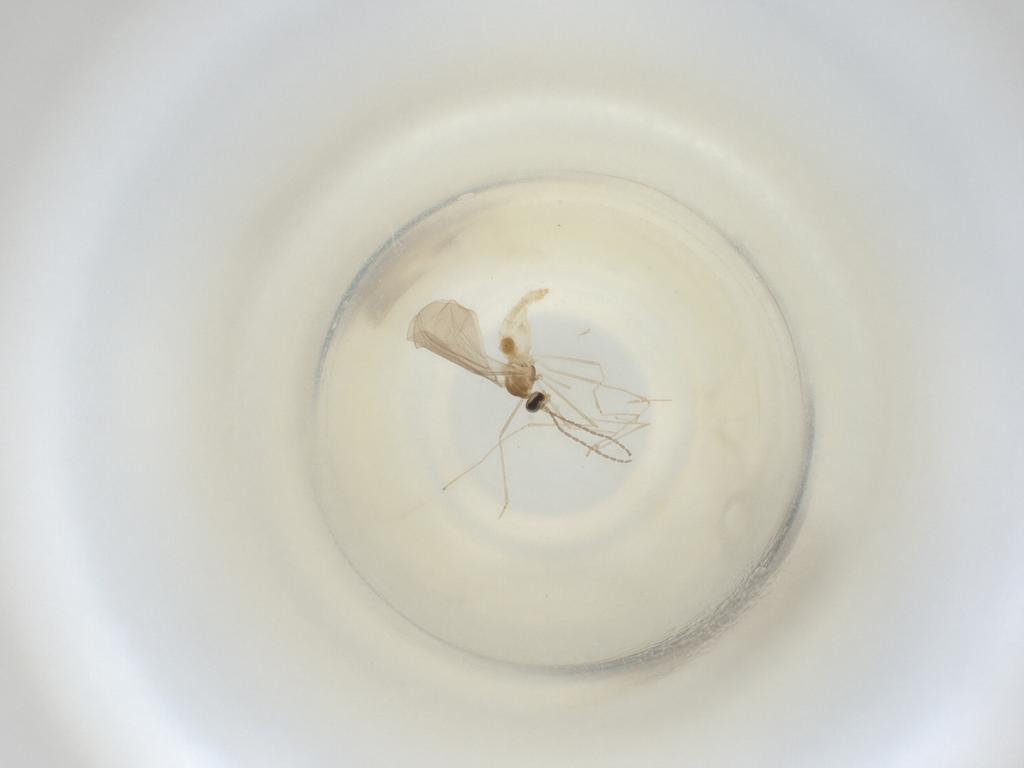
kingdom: Animalia
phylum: Arthropoda
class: Insecta
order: Diptera
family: Cecidomyiidae
